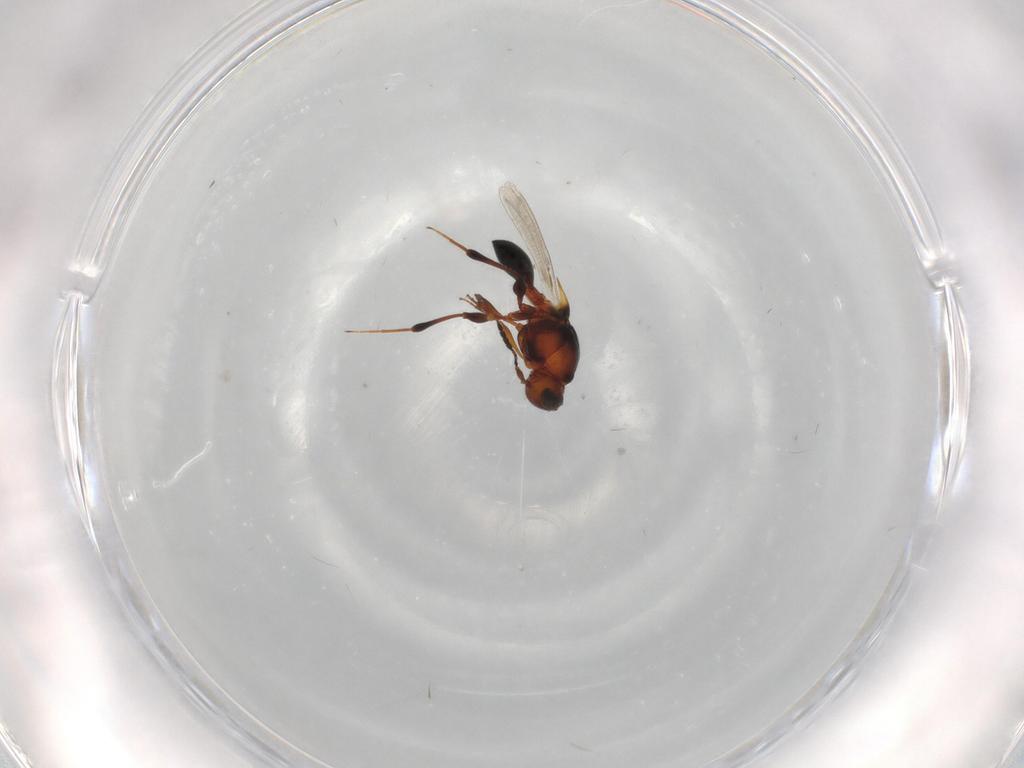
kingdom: Animalia
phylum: Arthropoda
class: Insecta
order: Hymenoptera
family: Platygastridae
